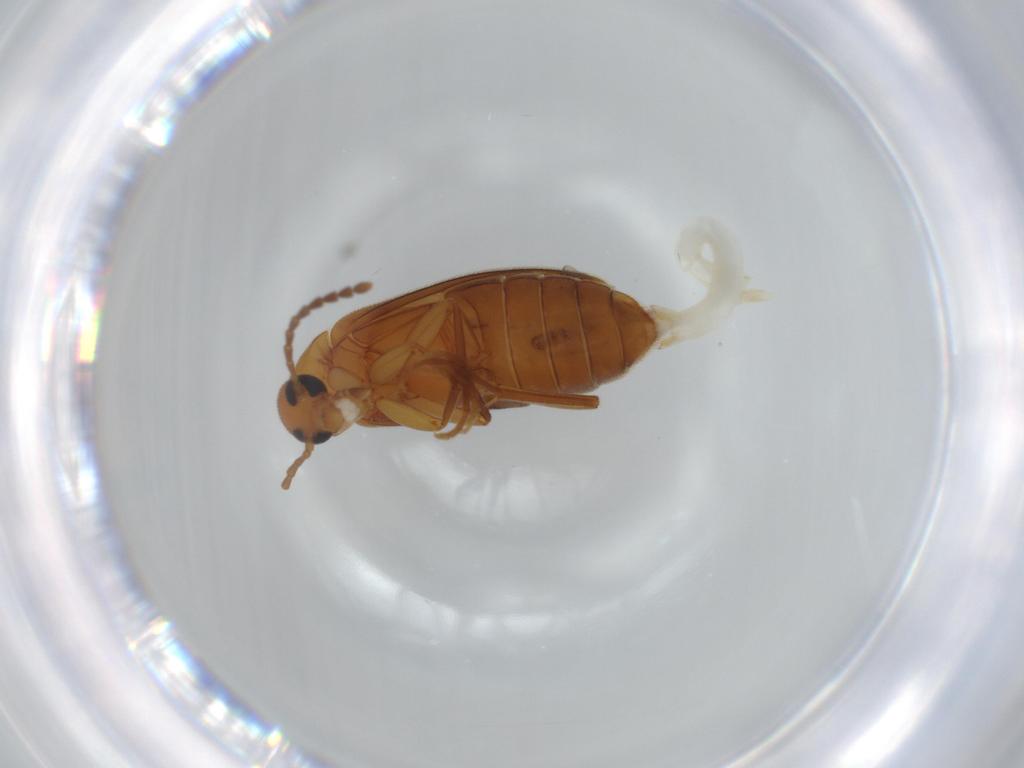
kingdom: Animalia
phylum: Arthropoda
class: Insecta
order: Coleoptera
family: Scraptiidae
